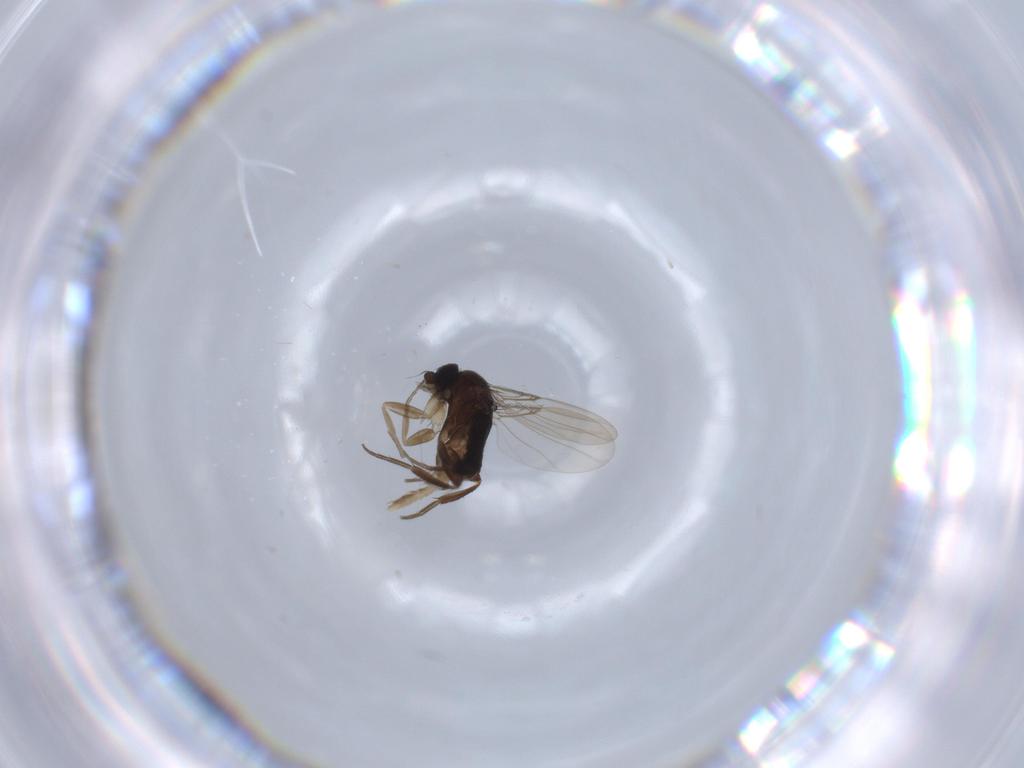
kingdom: Animalia
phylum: Arthropoda
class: Insecta
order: Diptera
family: Phoridae
